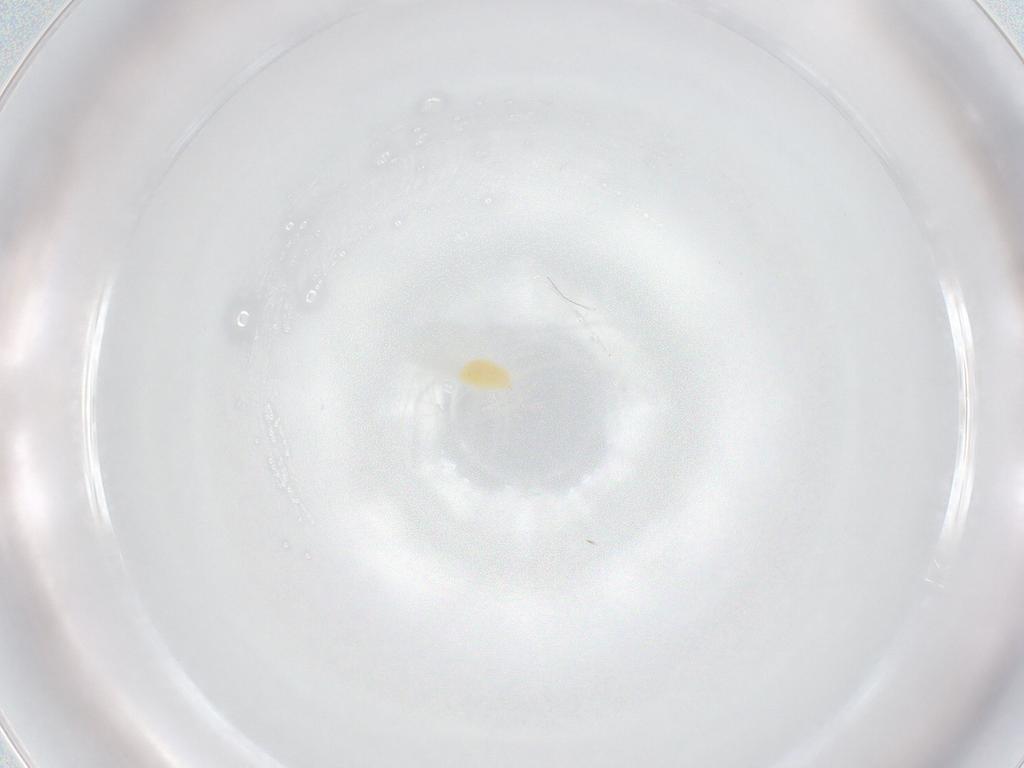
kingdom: Animalia
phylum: Arthropoda
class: Arachnida
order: Trombidiformes
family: Tetranychidae
